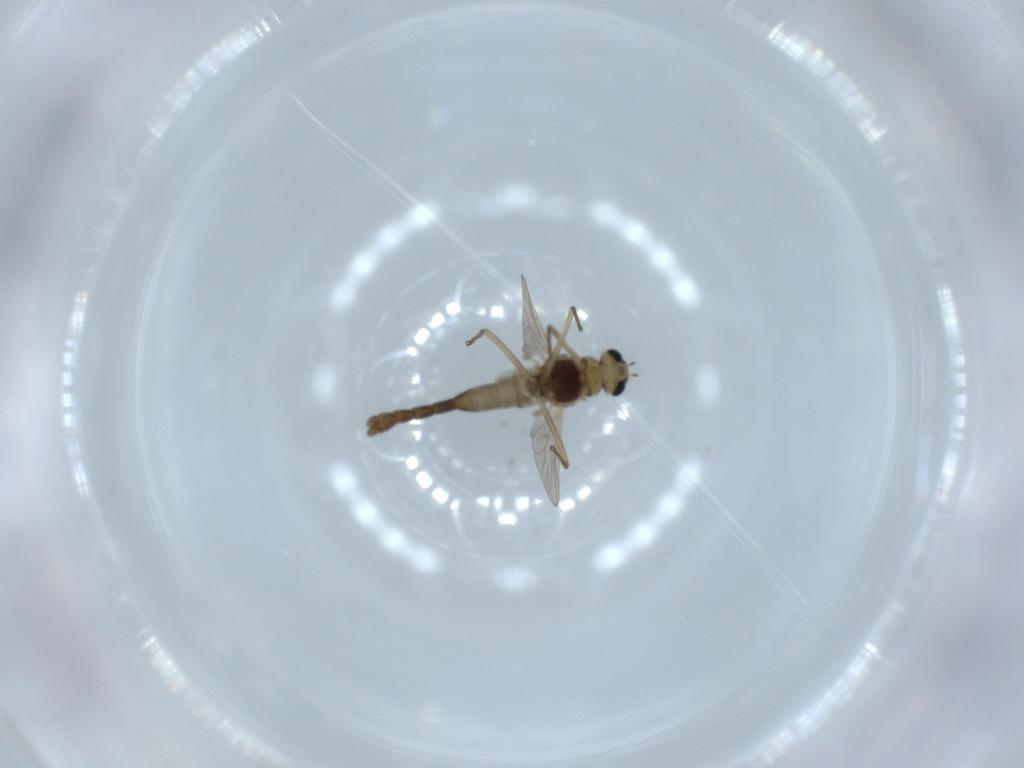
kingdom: Animalia
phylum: Arthropoda
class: Insecta
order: Diptera
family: Chironomidae
